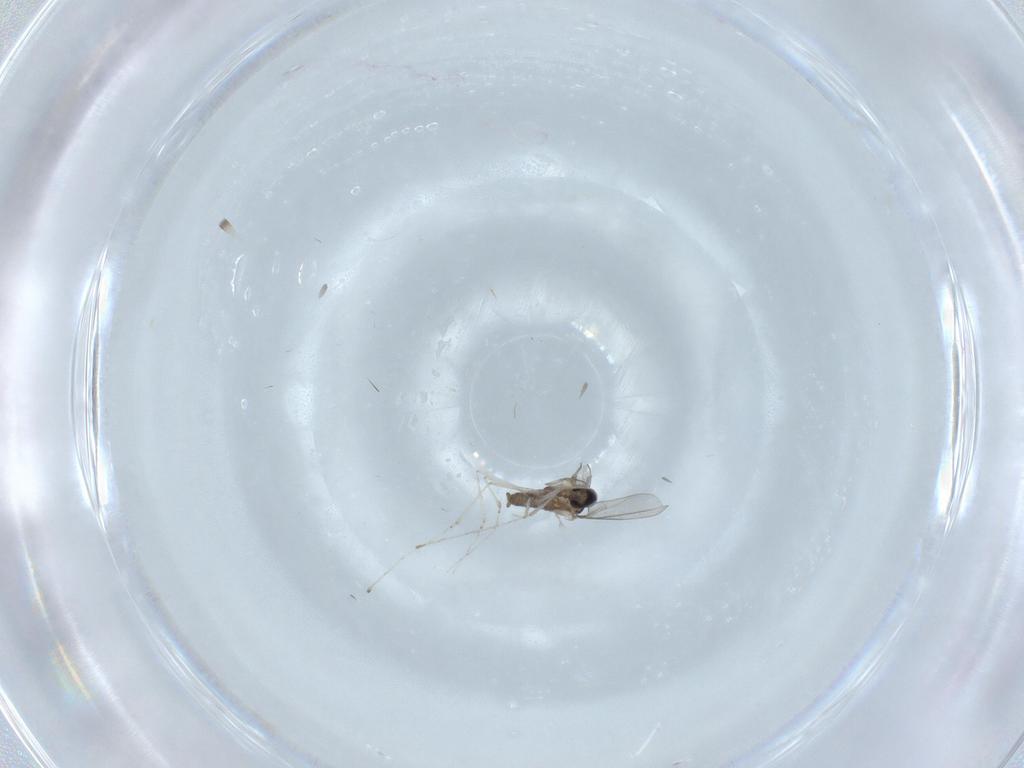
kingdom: Animalia
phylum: Arthropoda
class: Insecta
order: Diptera
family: Cecidomyiidae
